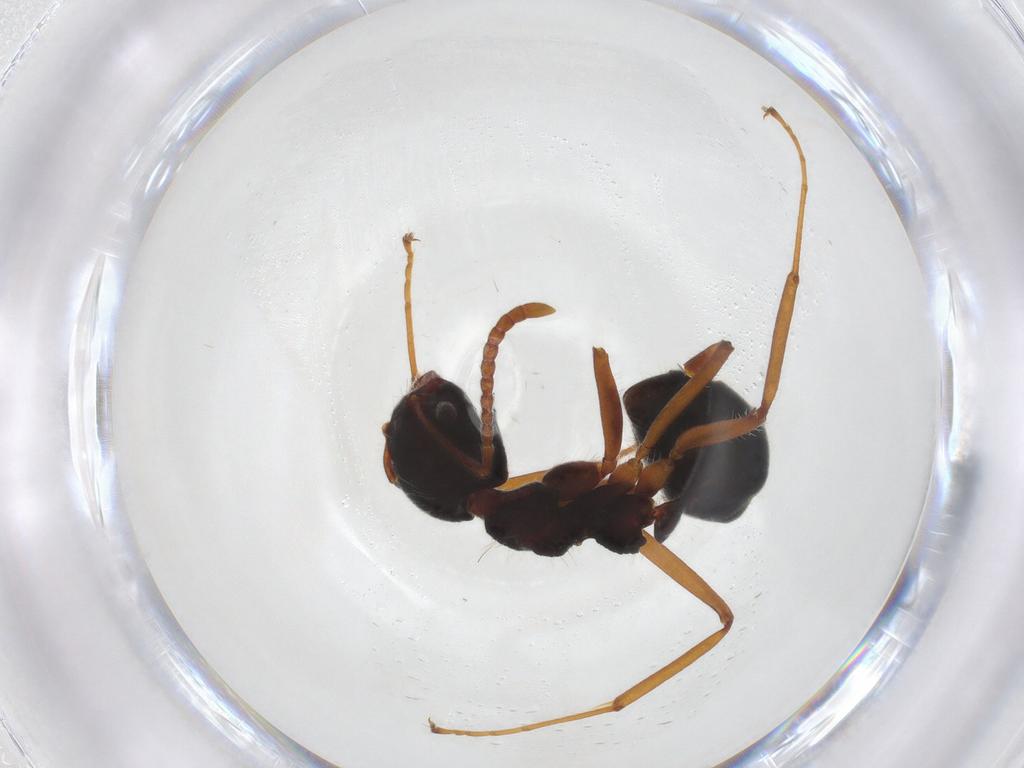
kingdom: Animalia
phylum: Arthropoda
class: Insecta
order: Hymenoptera
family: Formicidae
